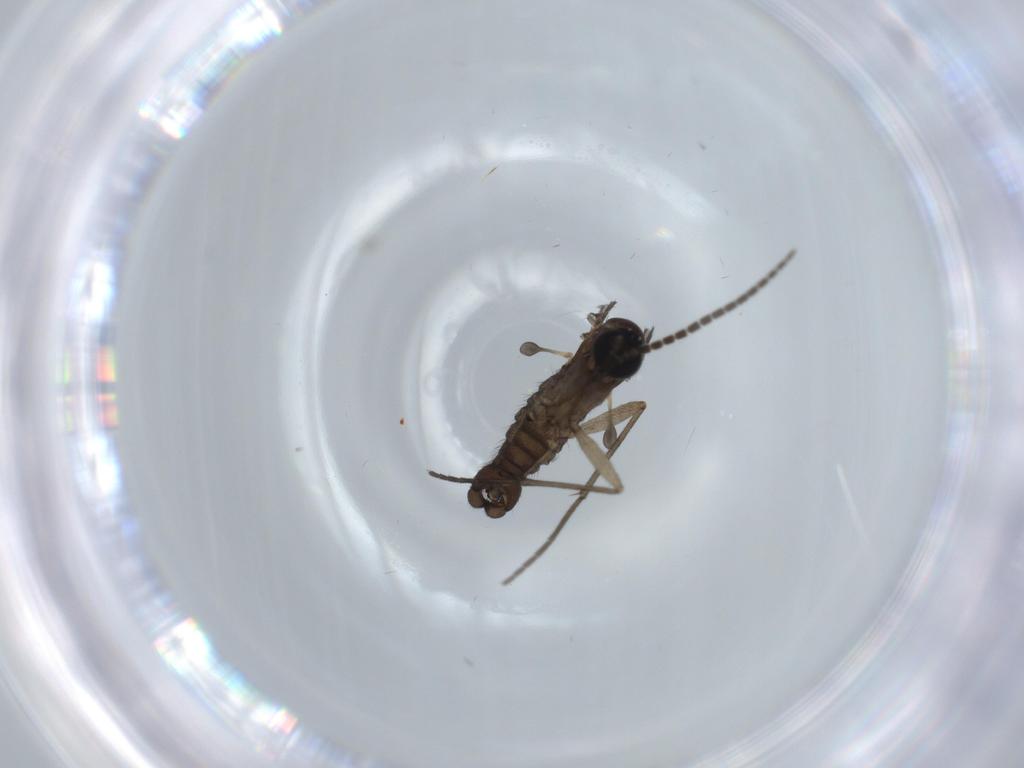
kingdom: Animalia
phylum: Arthropoda
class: Insecta
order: Diptera
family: Sciaridae
